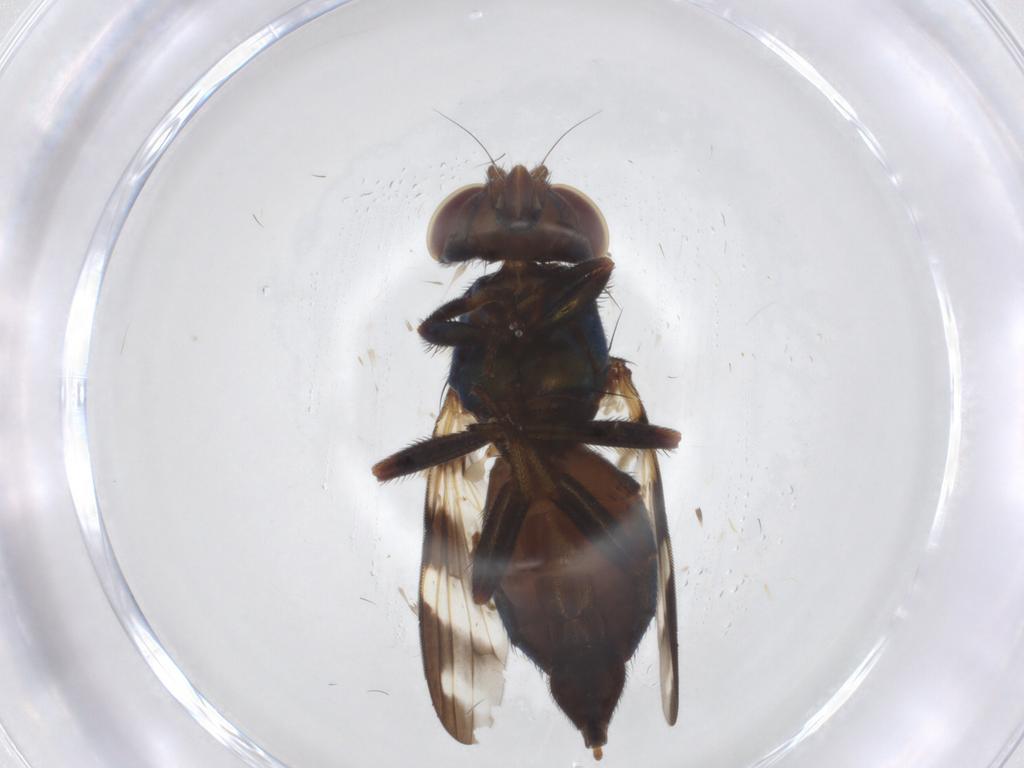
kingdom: Animalia
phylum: Arthropoda
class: Insecta
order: Diptera
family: Ulidiidae
